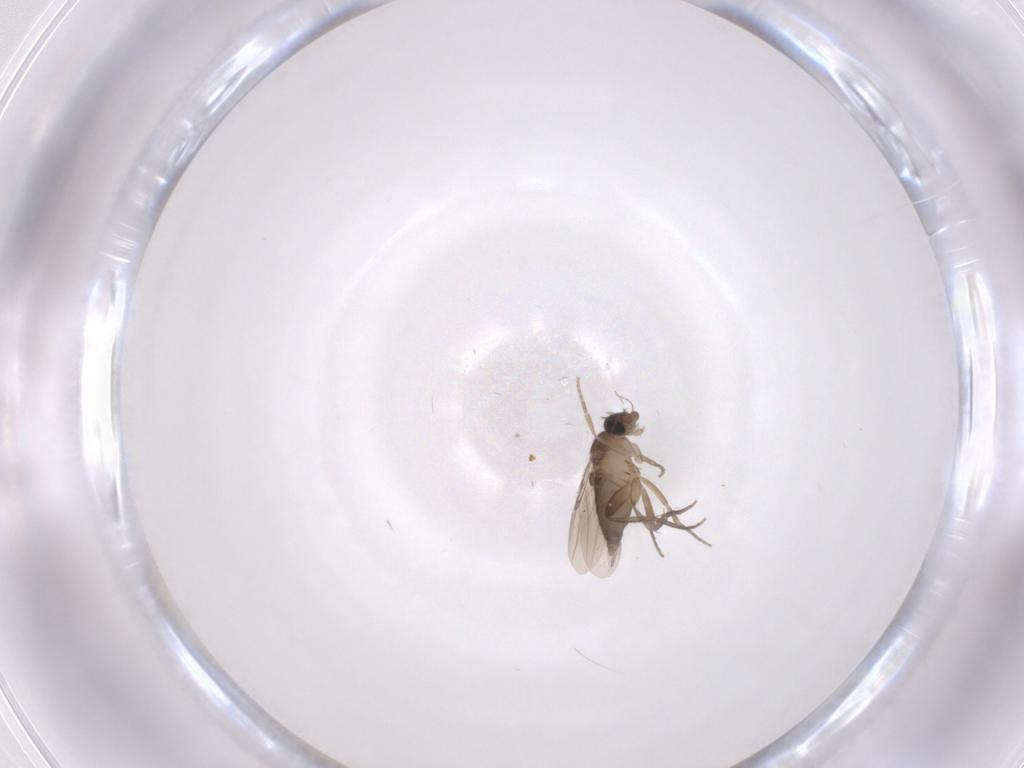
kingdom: Animalia
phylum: Arthropoda
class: Insecta
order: Diptera
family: Phoridae
